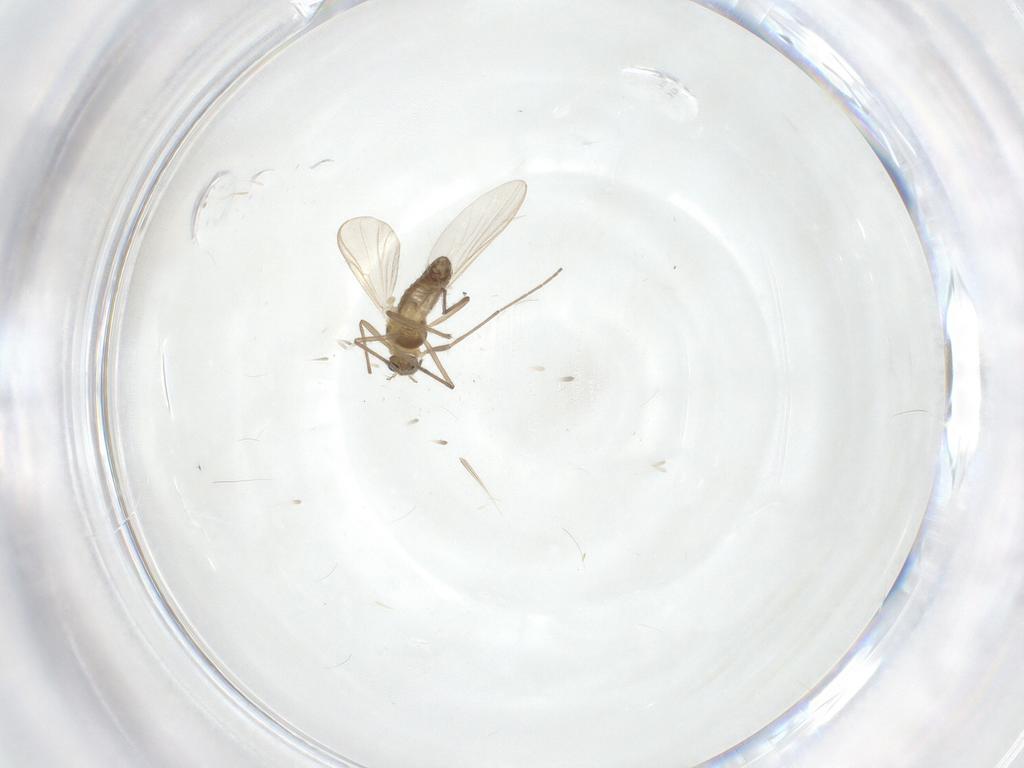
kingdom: Animalia
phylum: Arthropoda
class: Insecta
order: Diptera
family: Chironomidae
